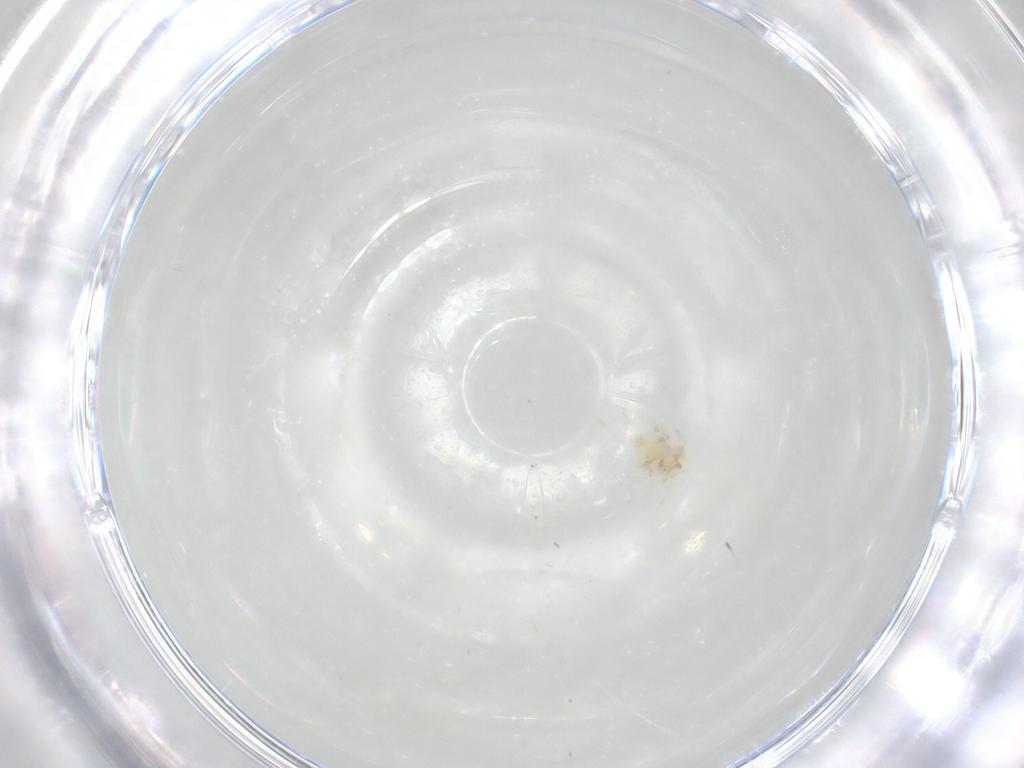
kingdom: Animalia
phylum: Arthropoda
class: Insecta
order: Neuroptera
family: Coniopterygidae
